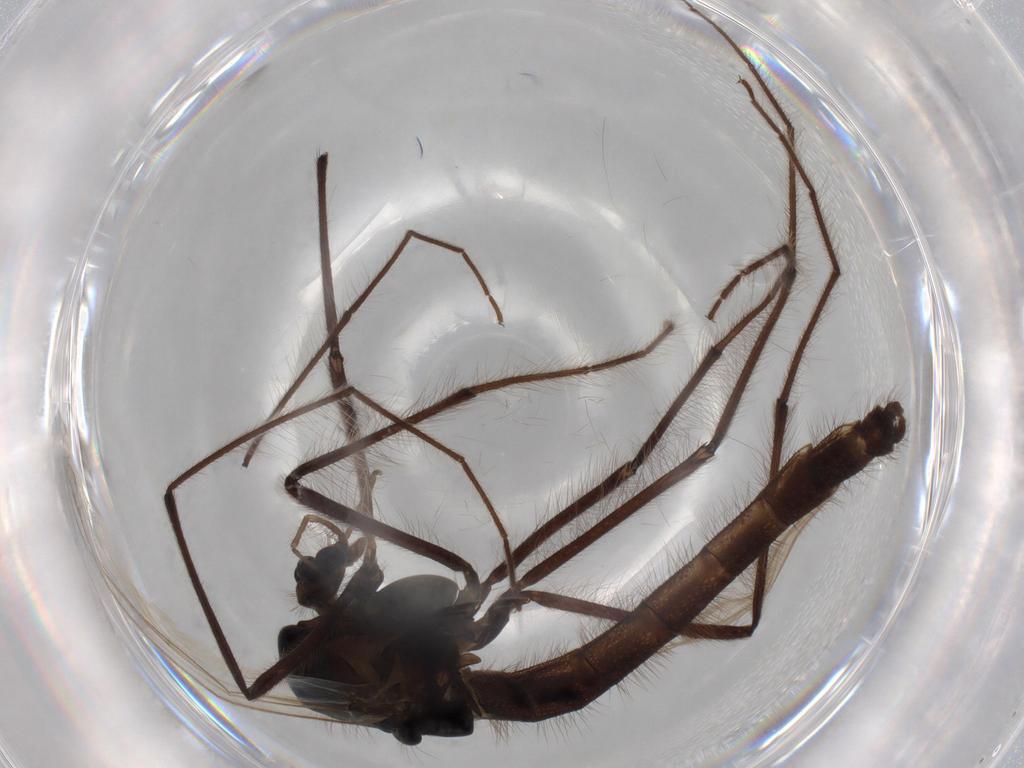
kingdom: Animalia
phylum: Arthropoda
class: Insecta
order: Diptera
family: Chironomidae
